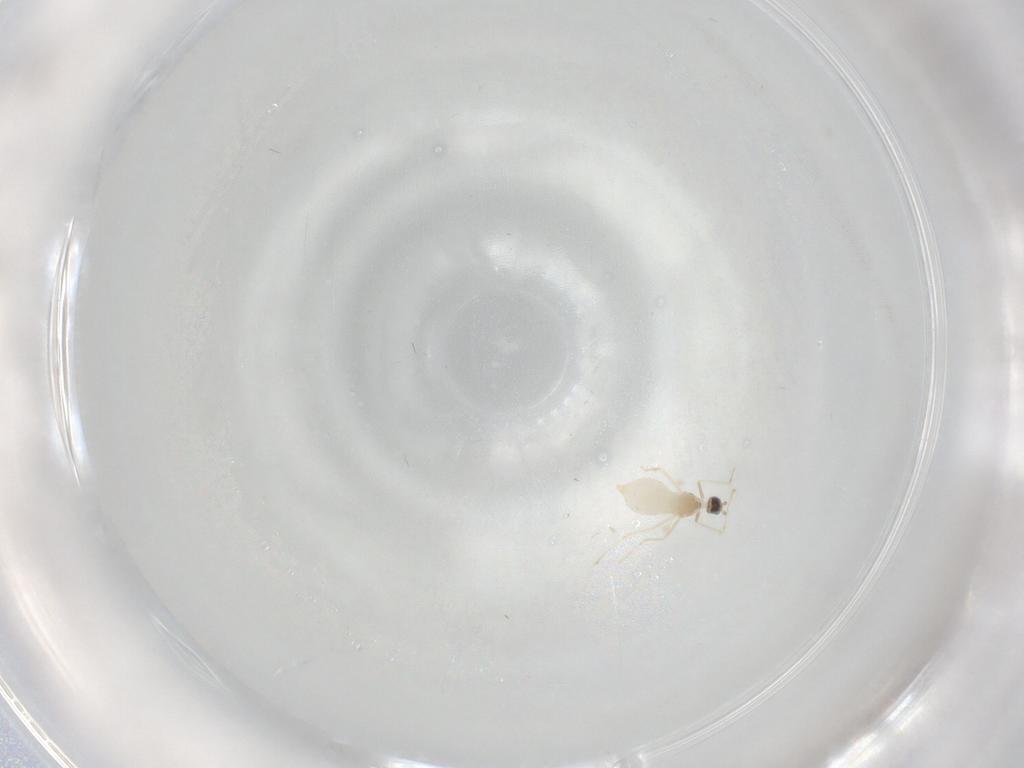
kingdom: Animalia
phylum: Arthropoda
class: Insecta
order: Diptera
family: Cecidomyiidae
